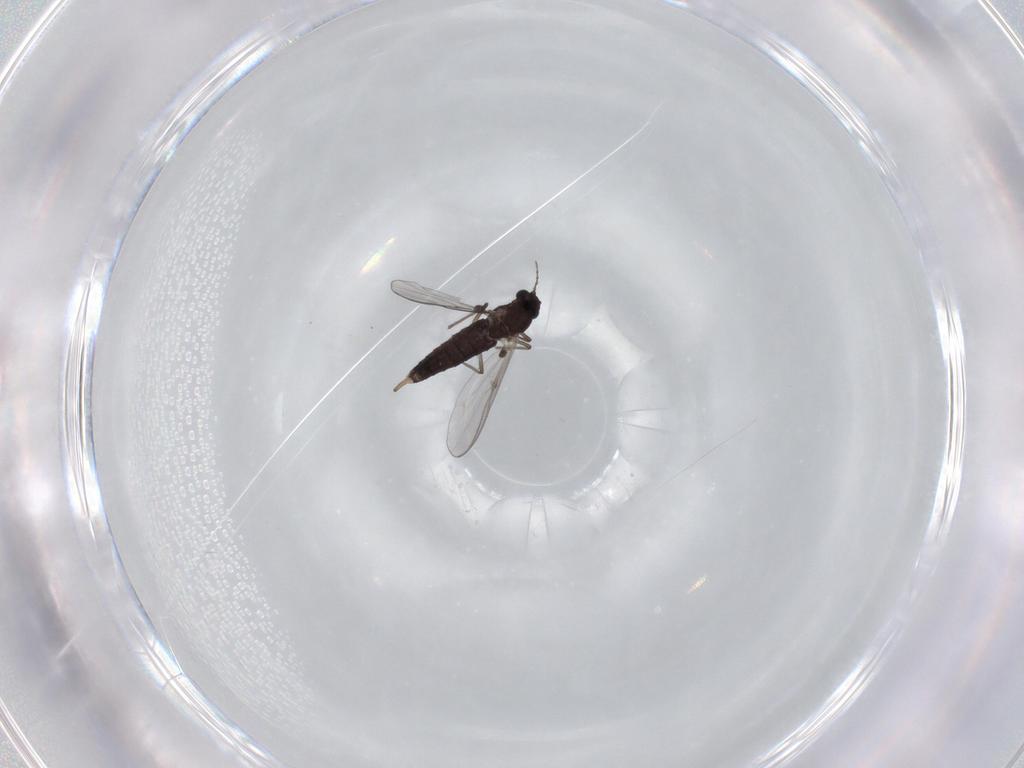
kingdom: Animalia
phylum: Arthropoda
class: Insecta
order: Diptera
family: Chironomidae
